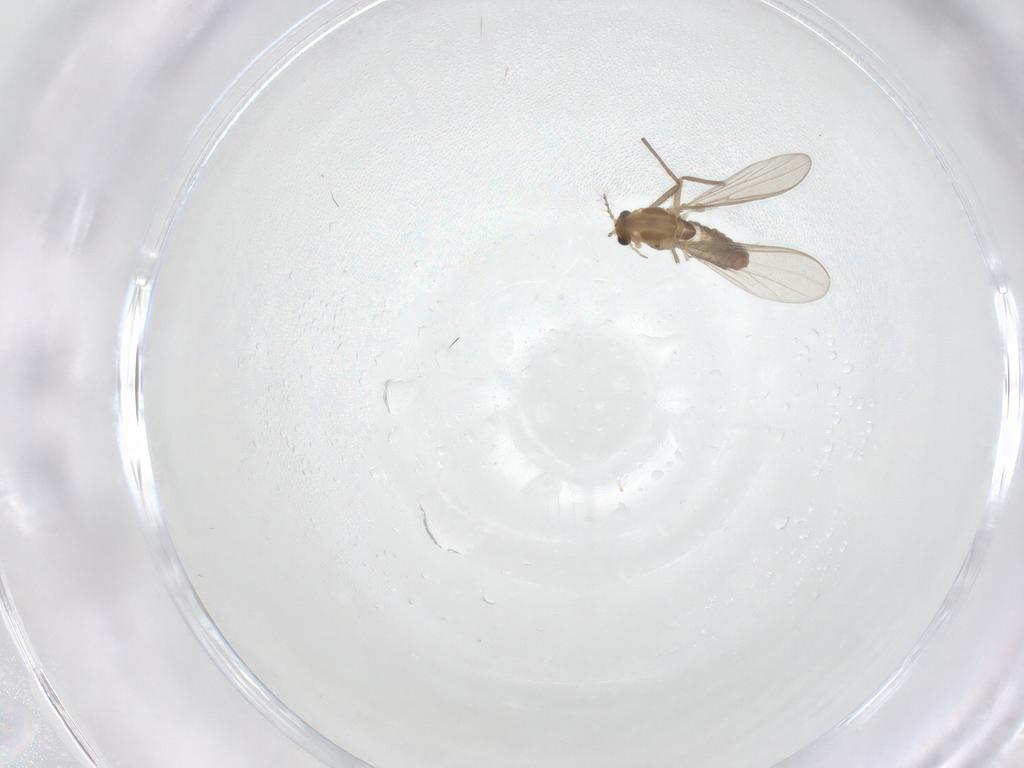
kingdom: Animalia
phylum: Arthropoda
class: Insecta
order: Diptera
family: Chironomidae
